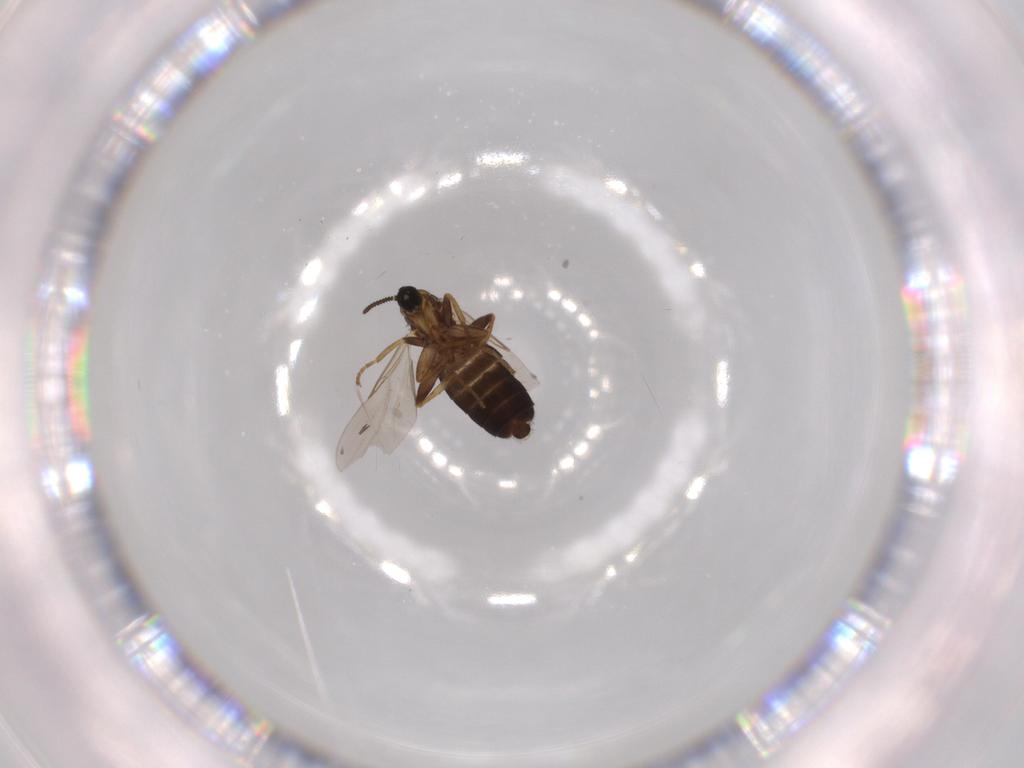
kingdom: Animalia
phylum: Arthropoda
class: Insecta
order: Diptera
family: Scatopsidae
